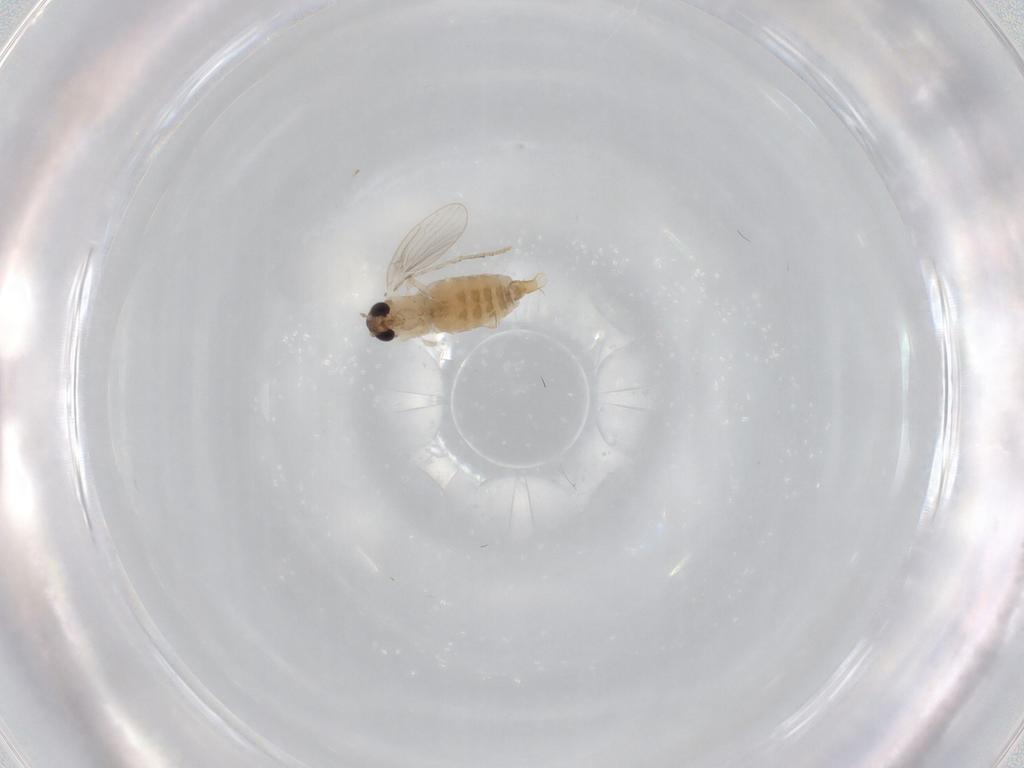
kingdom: Animalia
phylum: Arthropoda
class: Insecta
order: Diptera
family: Psychodidae
